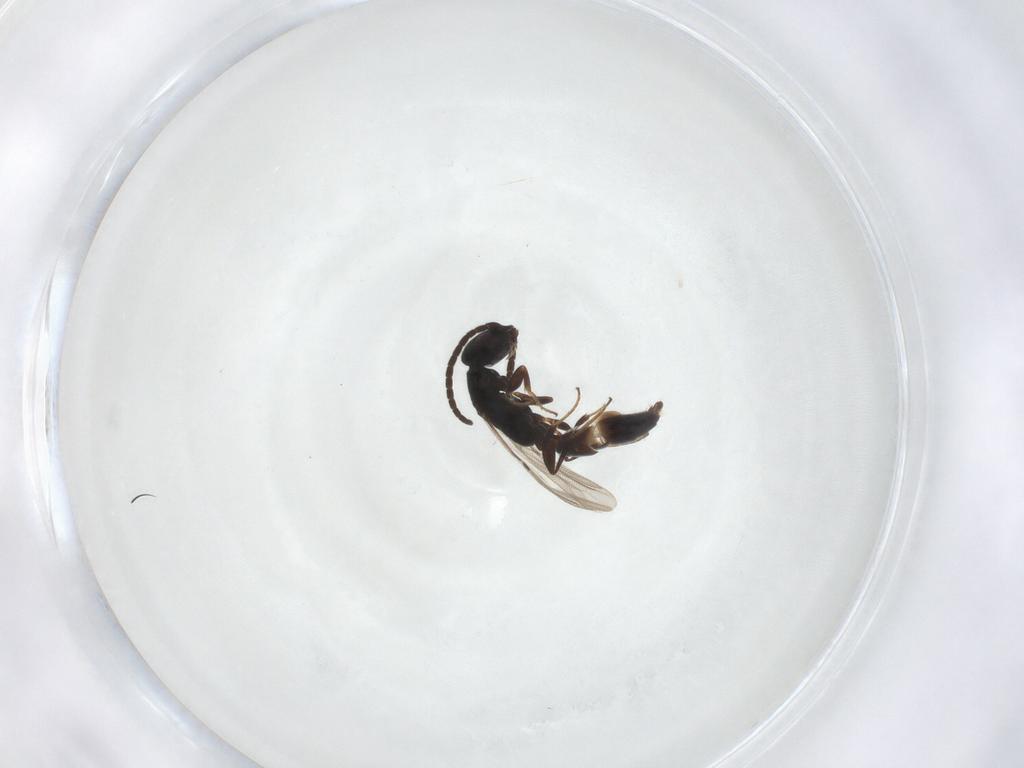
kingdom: Animalia
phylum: Arthropoda
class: Insecta
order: Hymenoptera
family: Bethylidae
